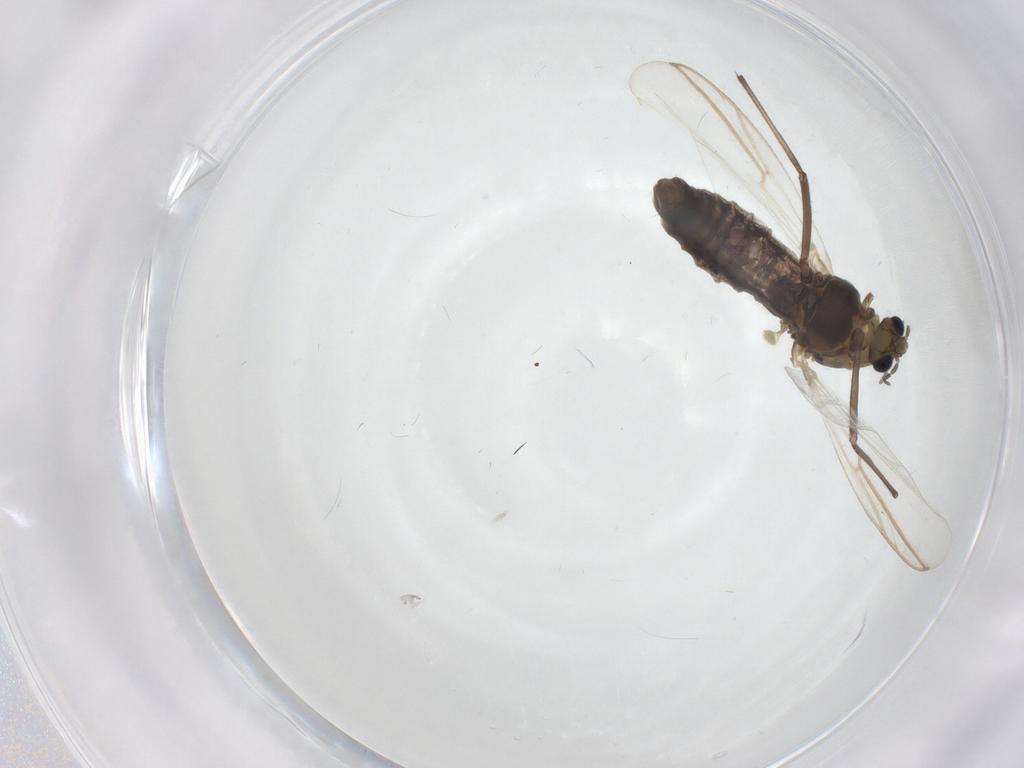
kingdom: Animalia
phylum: Arthropoda
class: Insecta
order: Diptera
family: Chironomidae
